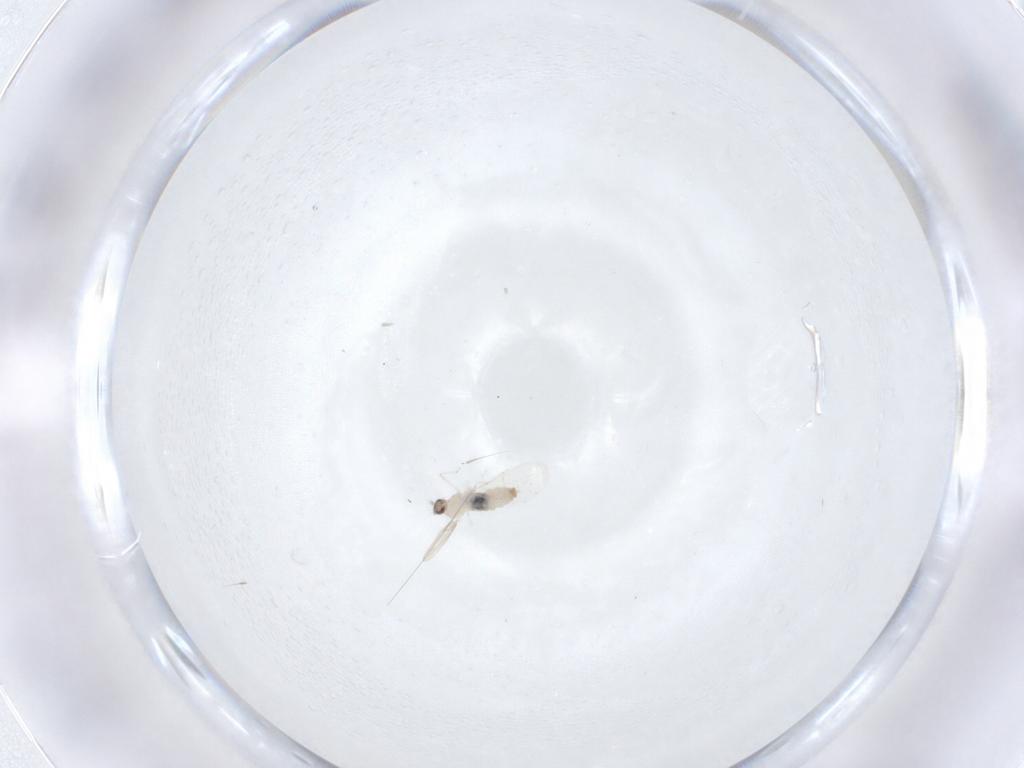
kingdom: Animalia
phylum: Arthropoda
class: Insecta
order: Diptera
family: Cecidomyiidae
